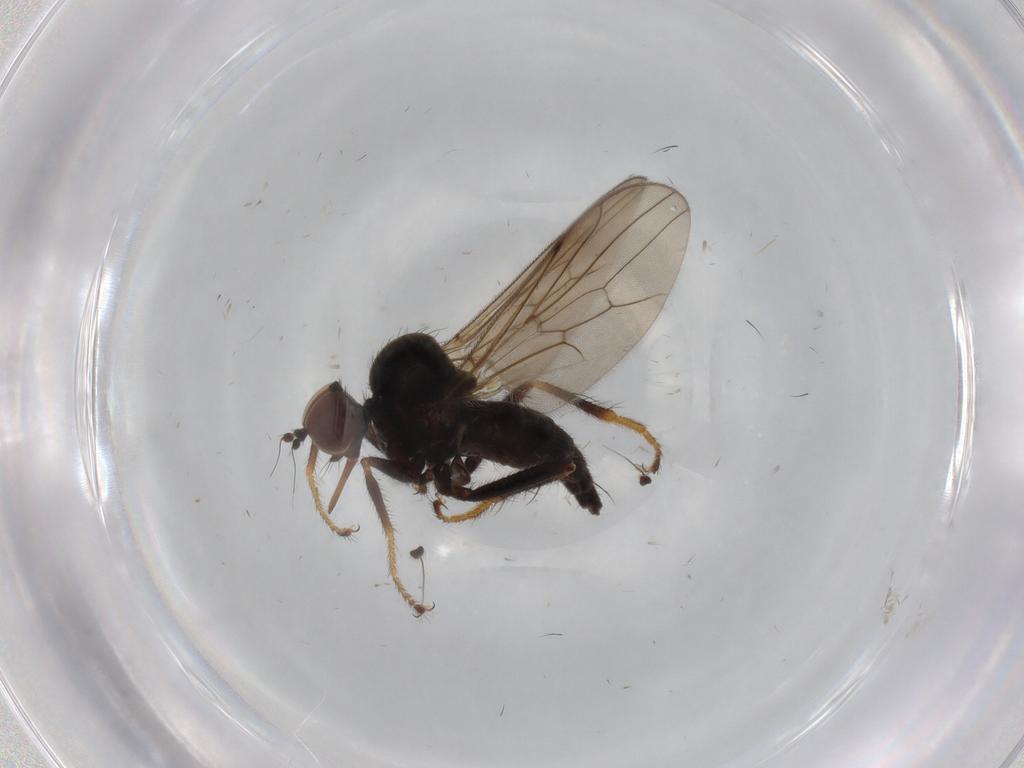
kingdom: Animalia
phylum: Arthropoda
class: Insecta
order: Diptera
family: Hybotidae
